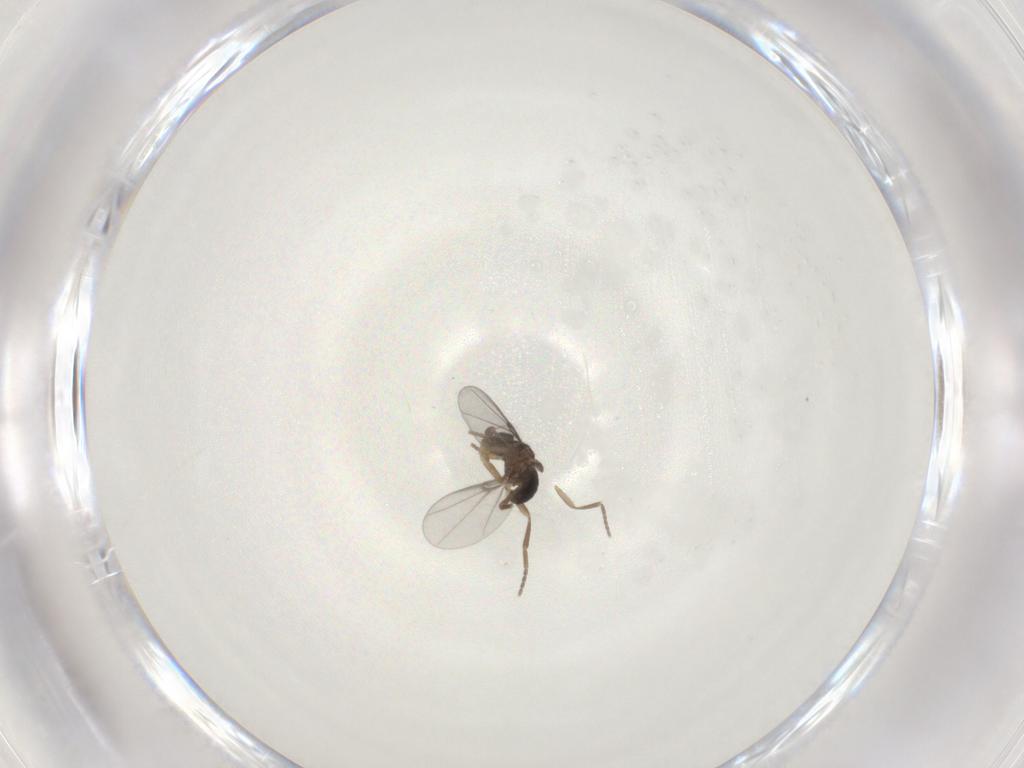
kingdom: Animalia
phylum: Arthropoda
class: Insecta
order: Diptera
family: Phoridae
